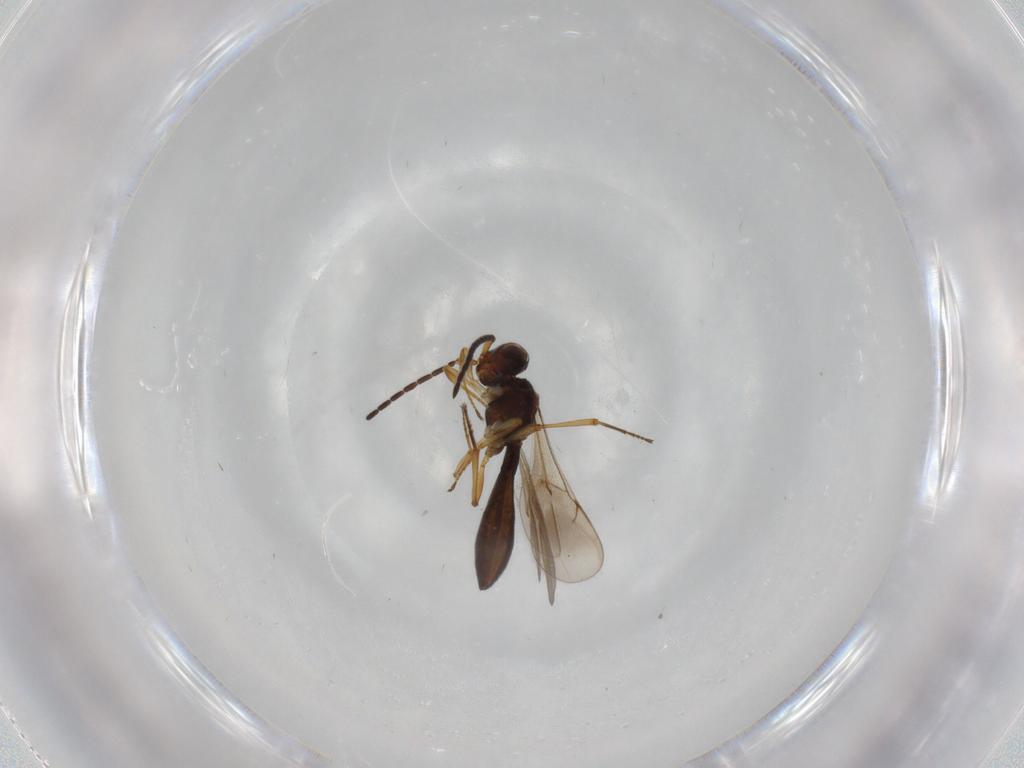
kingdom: Animalia
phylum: Arthropoda
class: Insecta
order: Hymenoptera
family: Scelionidae
